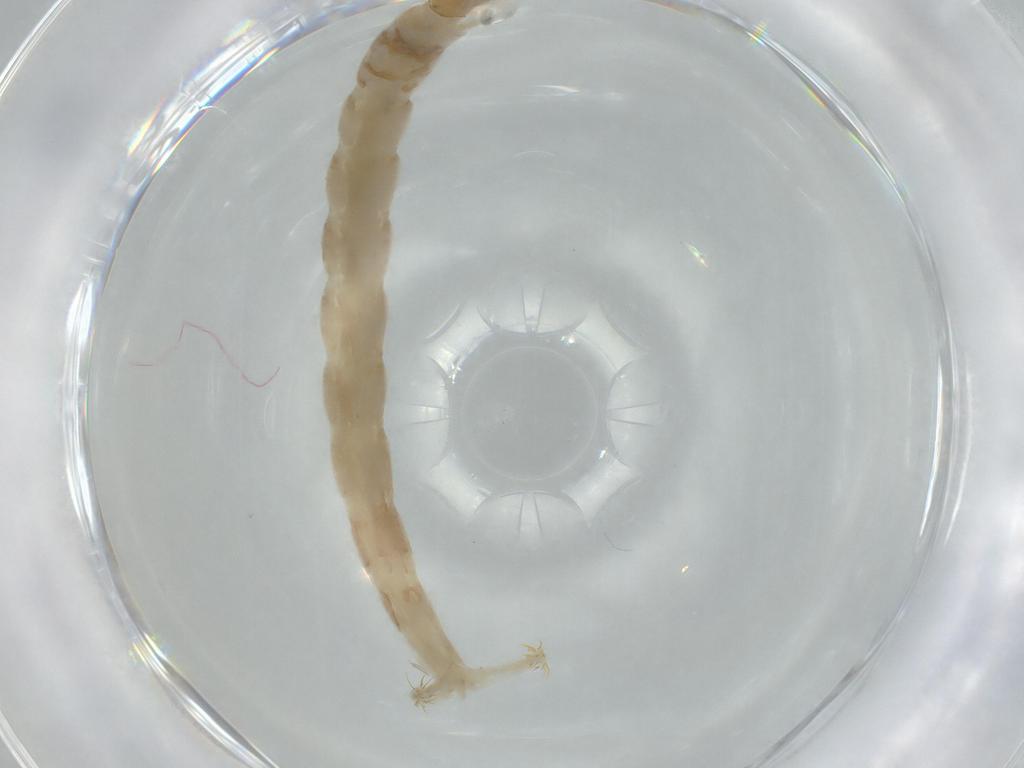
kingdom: Animalia
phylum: Arthropoda
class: Insecta
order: Diptera
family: Chironomidae
